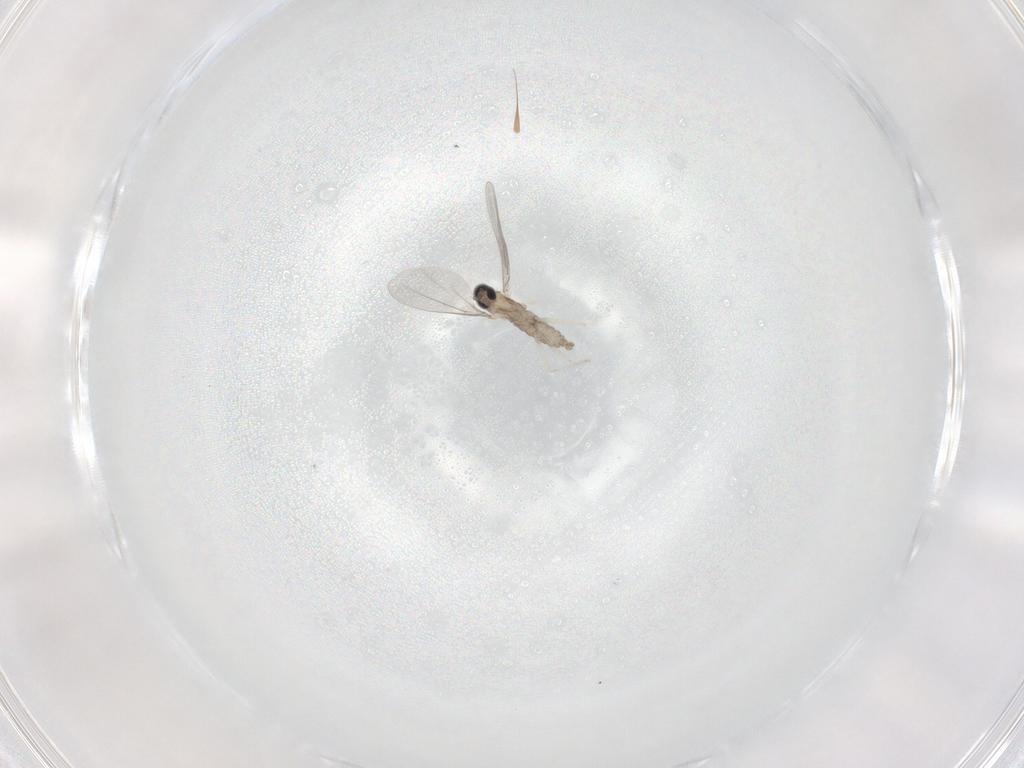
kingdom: Animalia
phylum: Arthropoda
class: Insecta
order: Diptera
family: Cecidomyiidae
